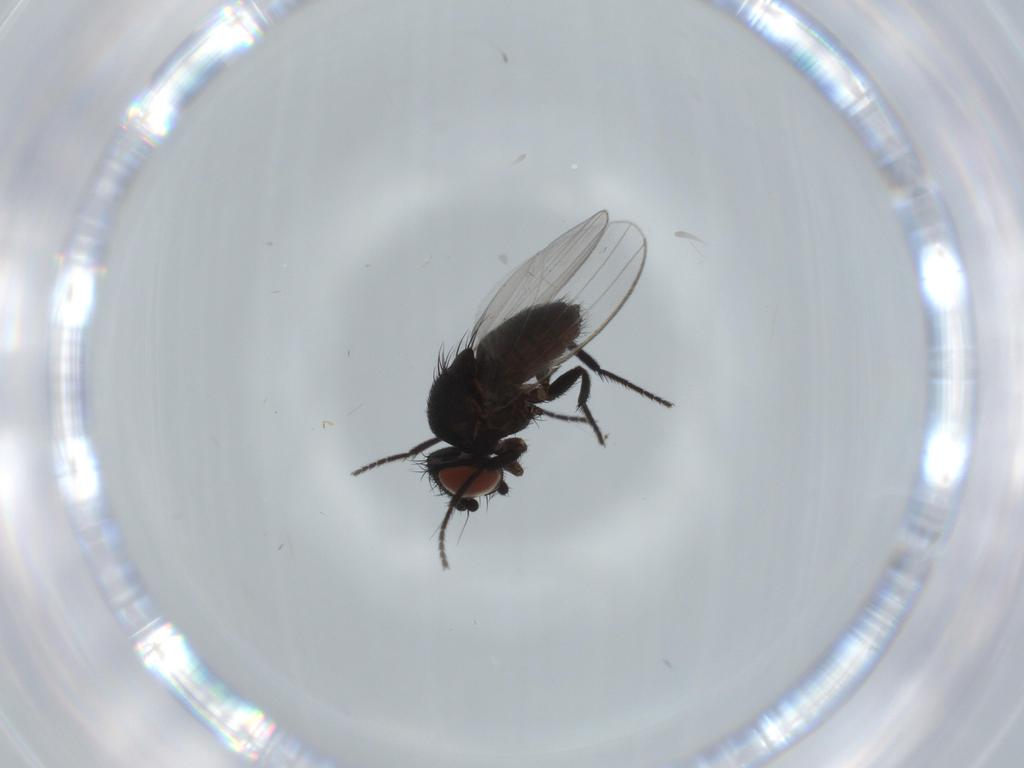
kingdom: Animalia
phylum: Arthropoda
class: Insecta
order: Diptera
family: Milichiidae
